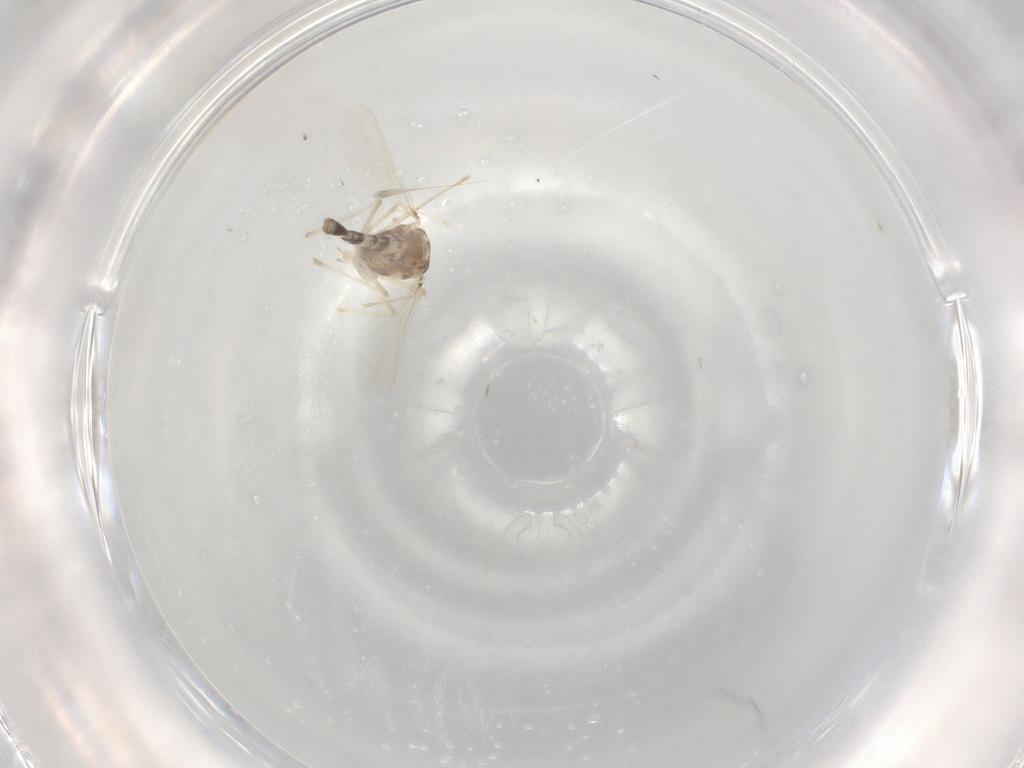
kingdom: Animalia
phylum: Arthropoda
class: Insecta
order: Diptera
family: Chironomidae
